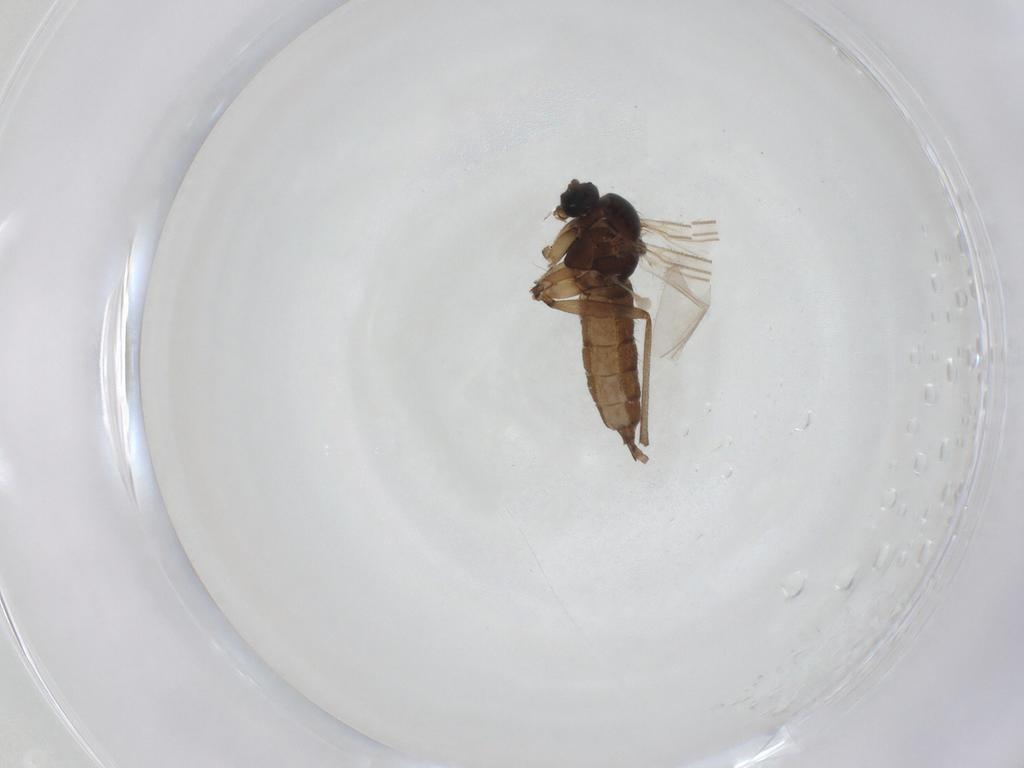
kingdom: Animalia
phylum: Arthropoda
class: Insecta
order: Diptera
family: Sciaridae
